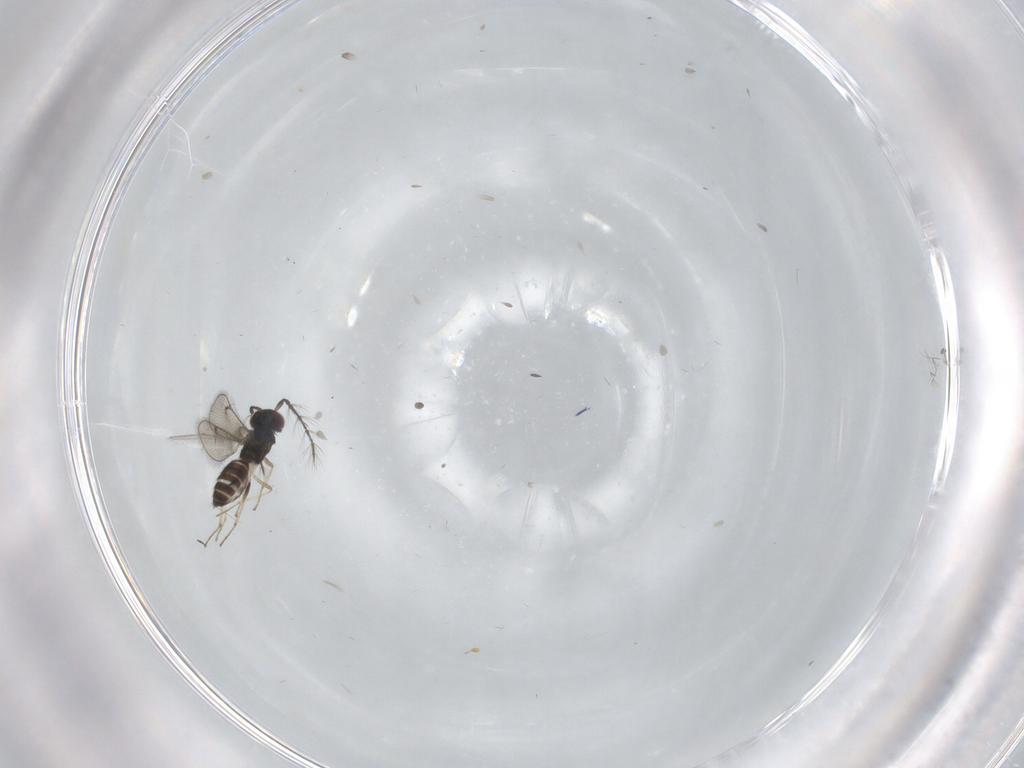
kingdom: Animalia
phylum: Arthropoda
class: Insecta
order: Hymenoptera
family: Eulophidae
